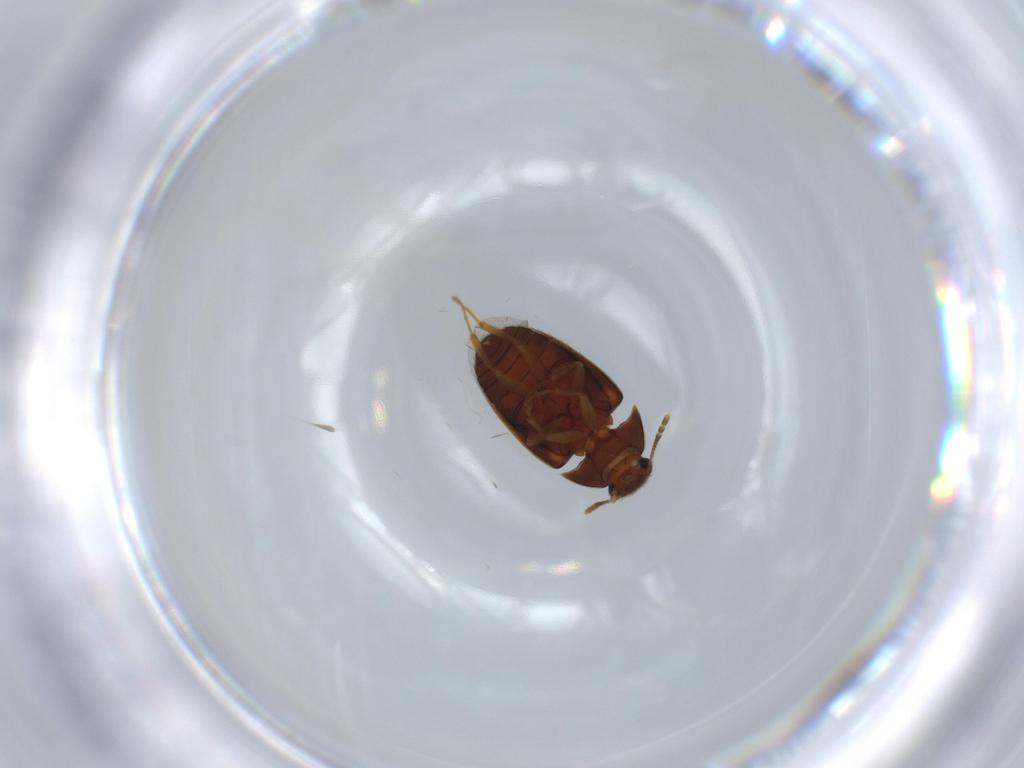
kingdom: Animalia
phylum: Arthropoda
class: Insecta
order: Coleoptera
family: Mycetophagidae
